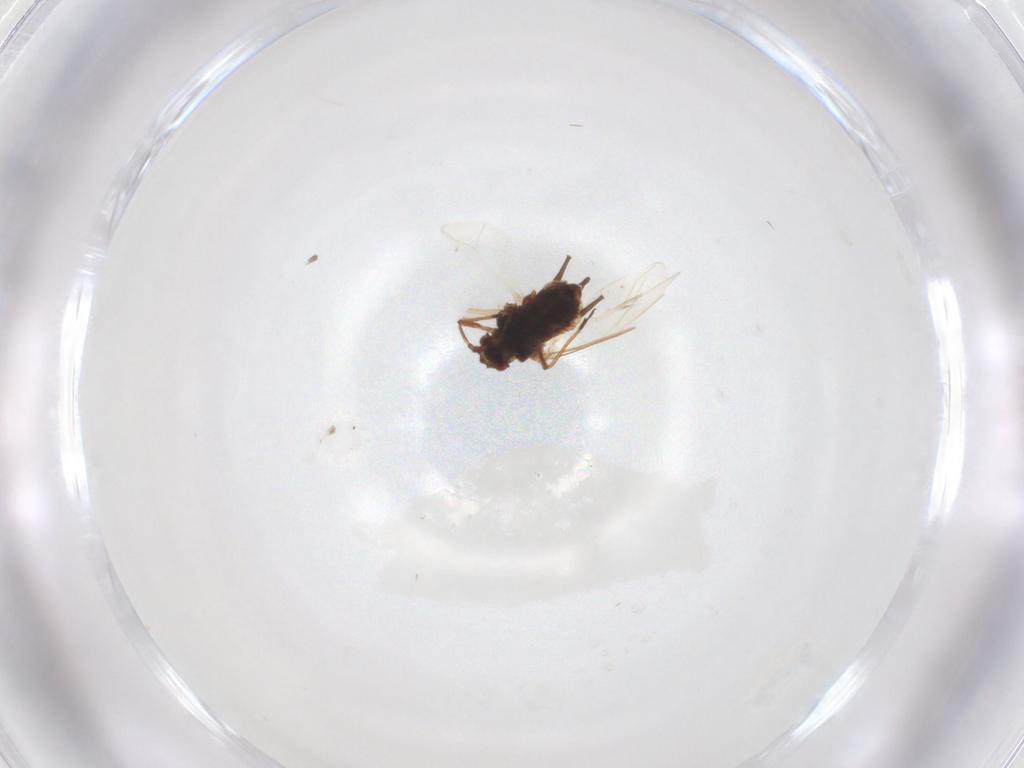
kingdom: Animalia
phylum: Arthropoda
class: Insecta
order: Hemiptera
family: Aphididae
